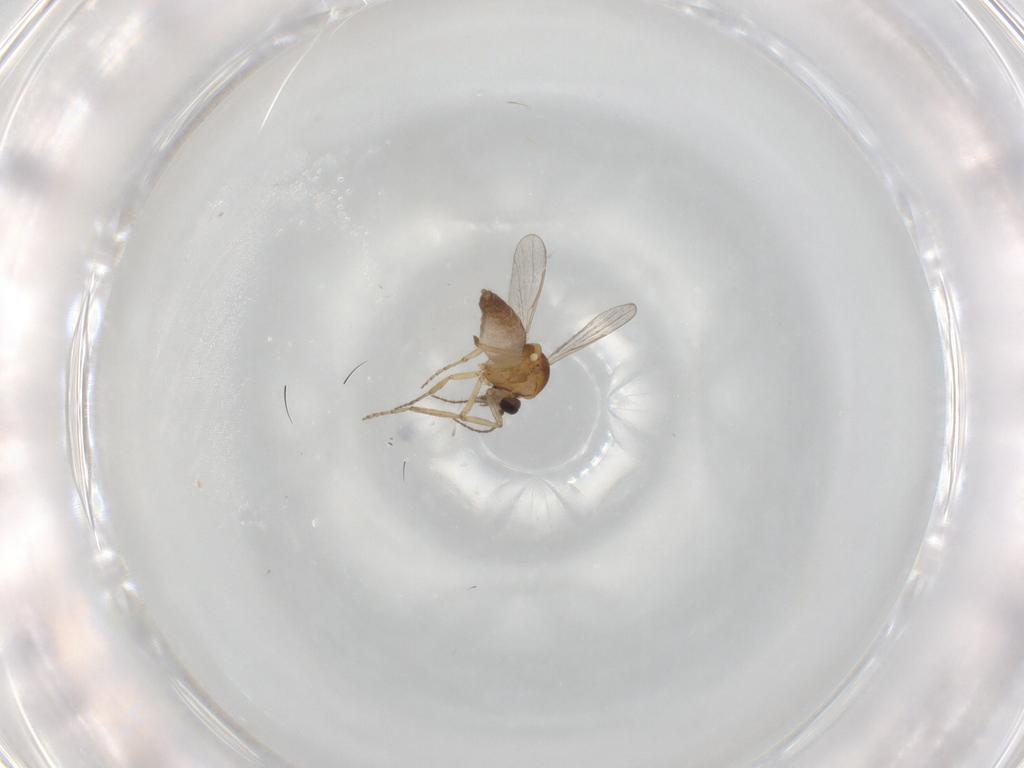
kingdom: Animalia
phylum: Arthropoda
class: Insecta
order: Diptera
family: Ceratopogonidae
